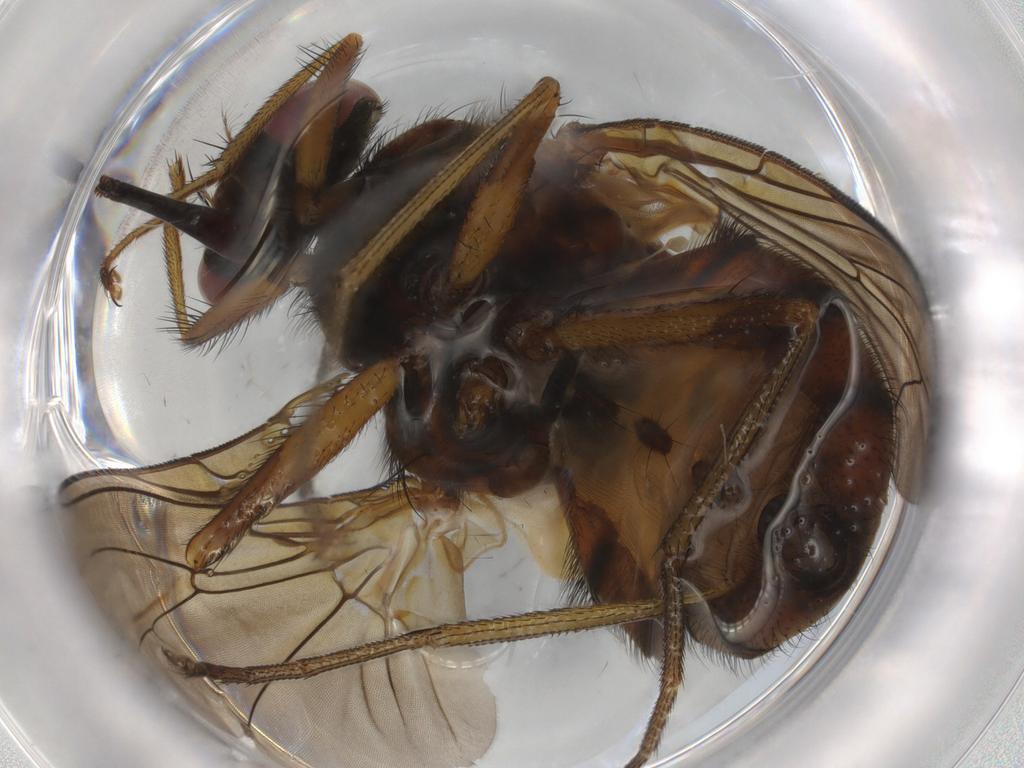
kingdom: Animalia
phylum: Arthropoda
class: Insecta
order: Diptera
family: Muscidae
